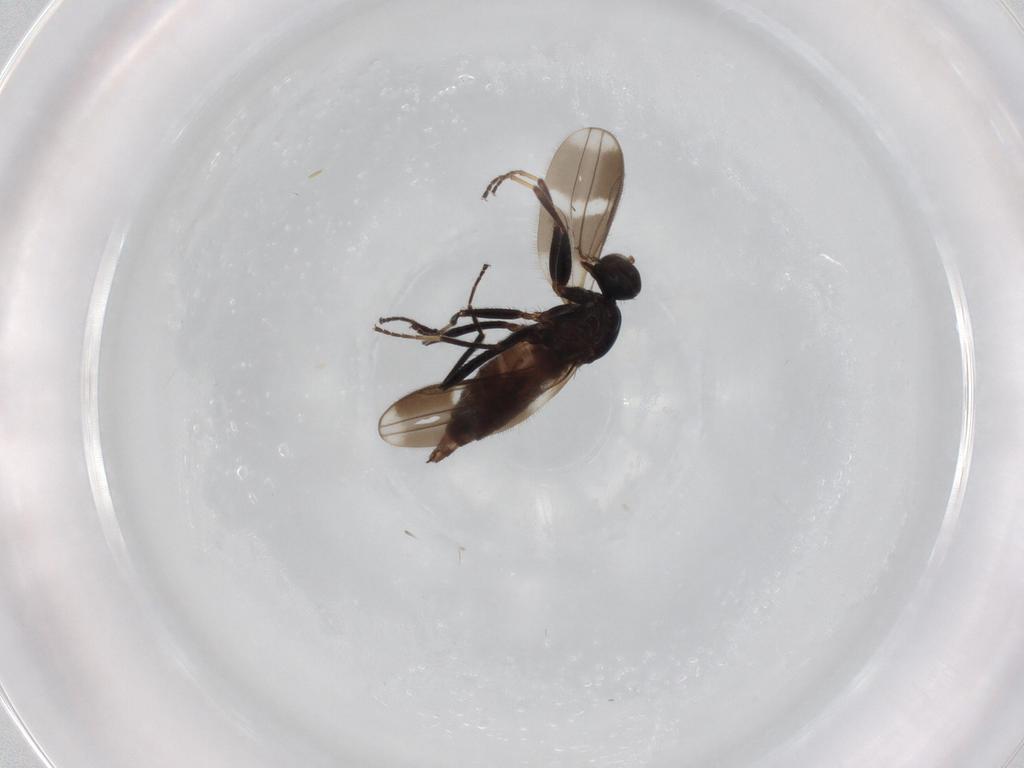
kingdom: Animalia
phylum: Arthropoda
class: Insecta
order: Diptera
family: Hybotidae
